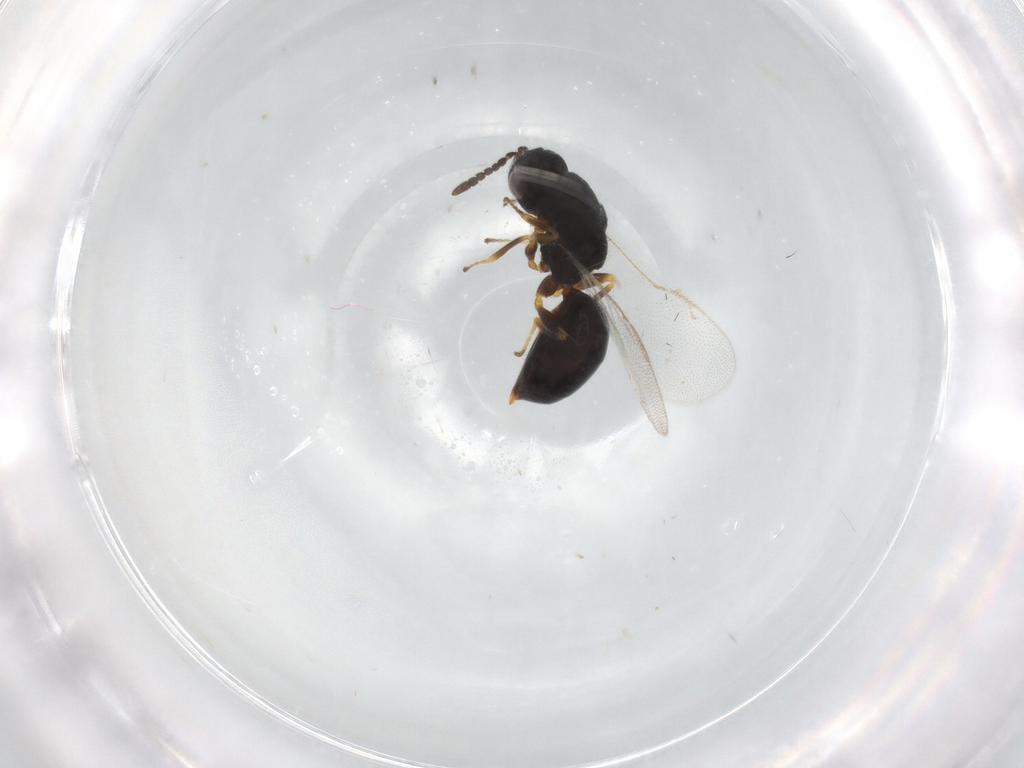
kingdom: Animalia
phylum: Arthropoda
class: Insecta
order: Hymenoptera
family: Eurytomidae
